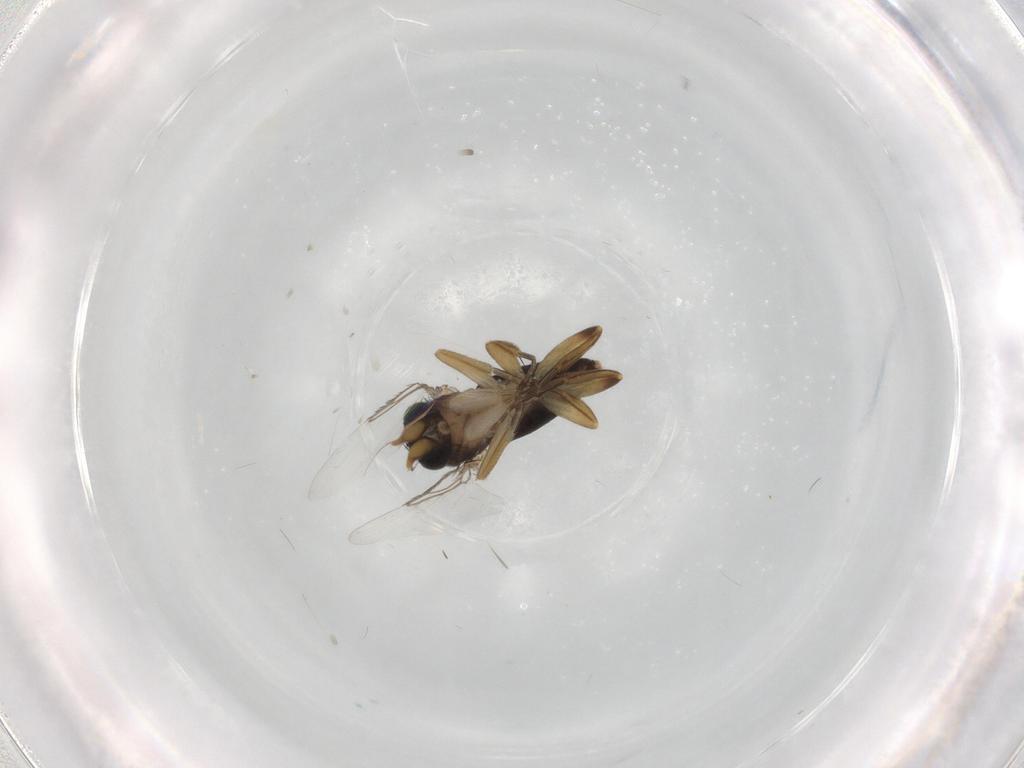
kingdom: Animalia
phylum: Arthropoda
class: Insecta
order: Diptera
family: Phoridae
